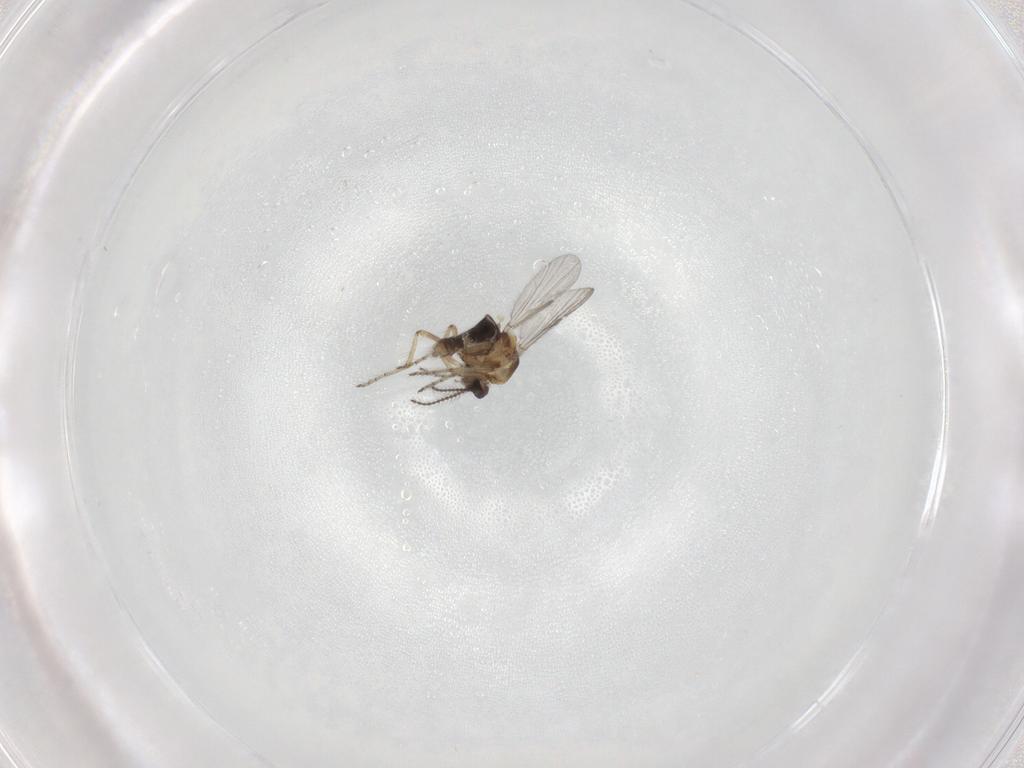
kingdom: Animalia
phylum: Arthropoda
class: Insecta
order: Diptera
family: Ceratopogonidae
